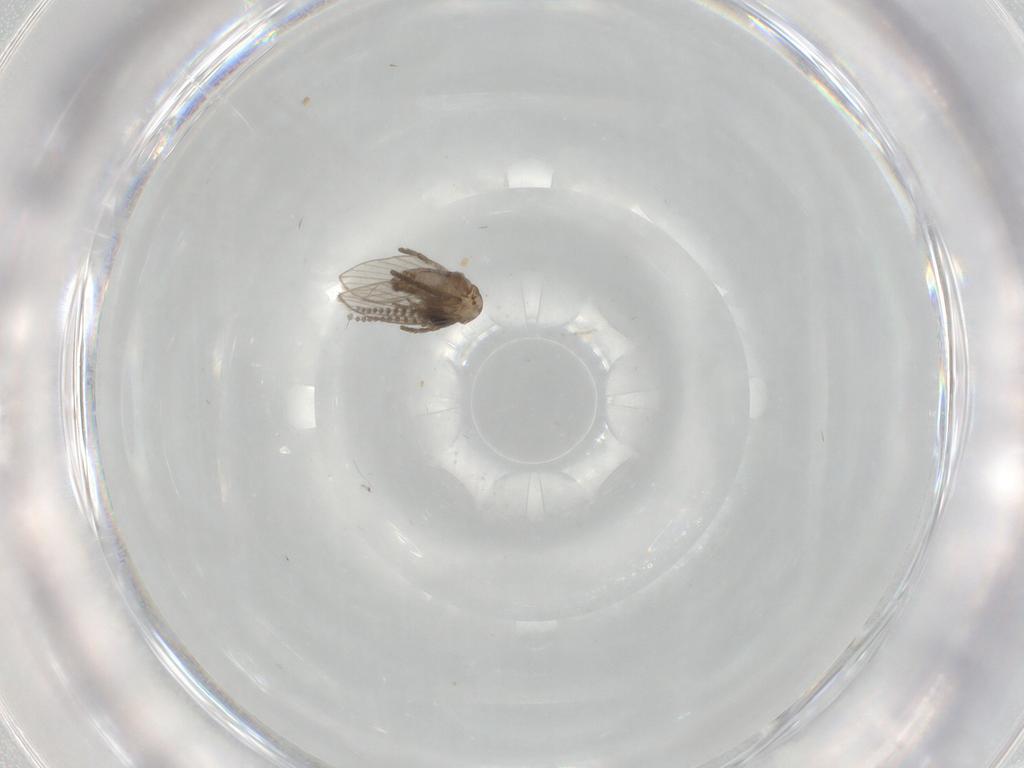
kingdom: Animalia
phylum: Arthropoda
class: Insecta
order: Diptera
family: Psychodidae
